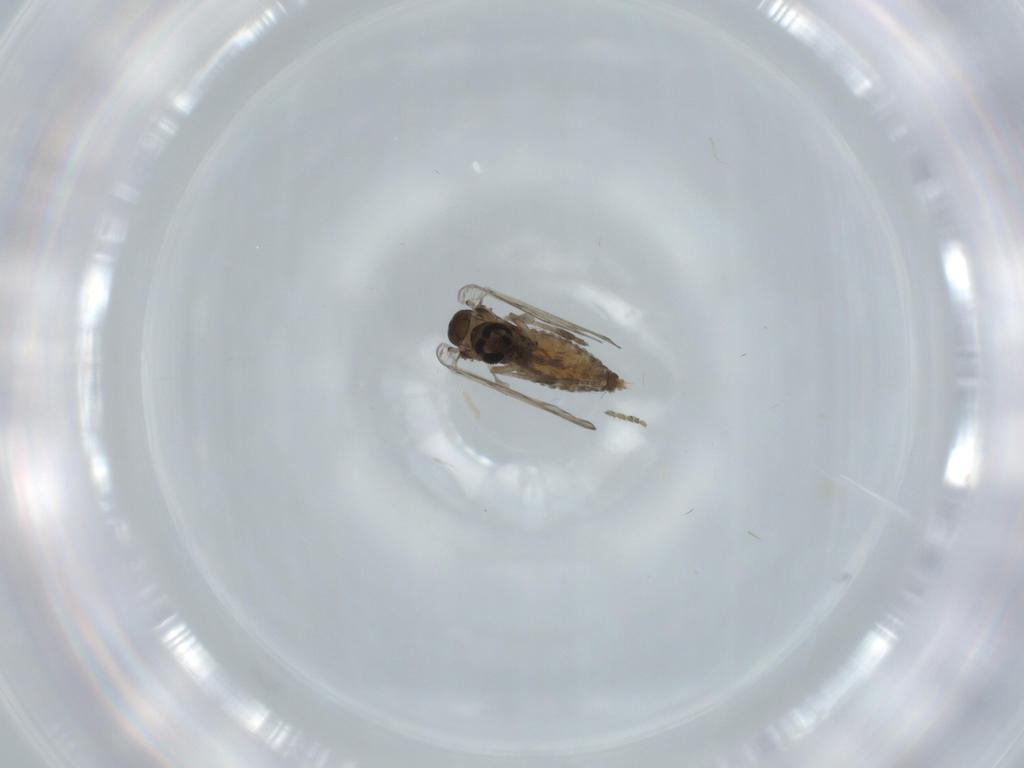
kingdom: Animalia
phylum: Arthropoda
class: Insecta
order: Diptera
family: Psychodidae
